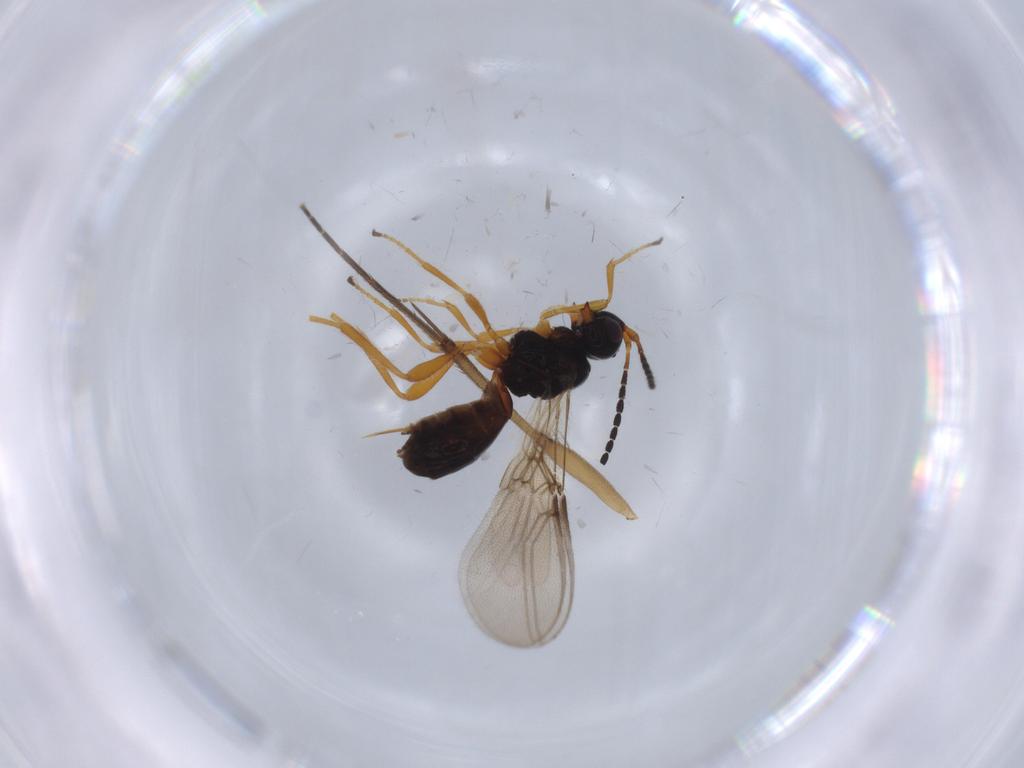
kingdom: Animalia
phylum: Arthropoda
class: Insecta
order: Hymenoptera
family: Braconidae
